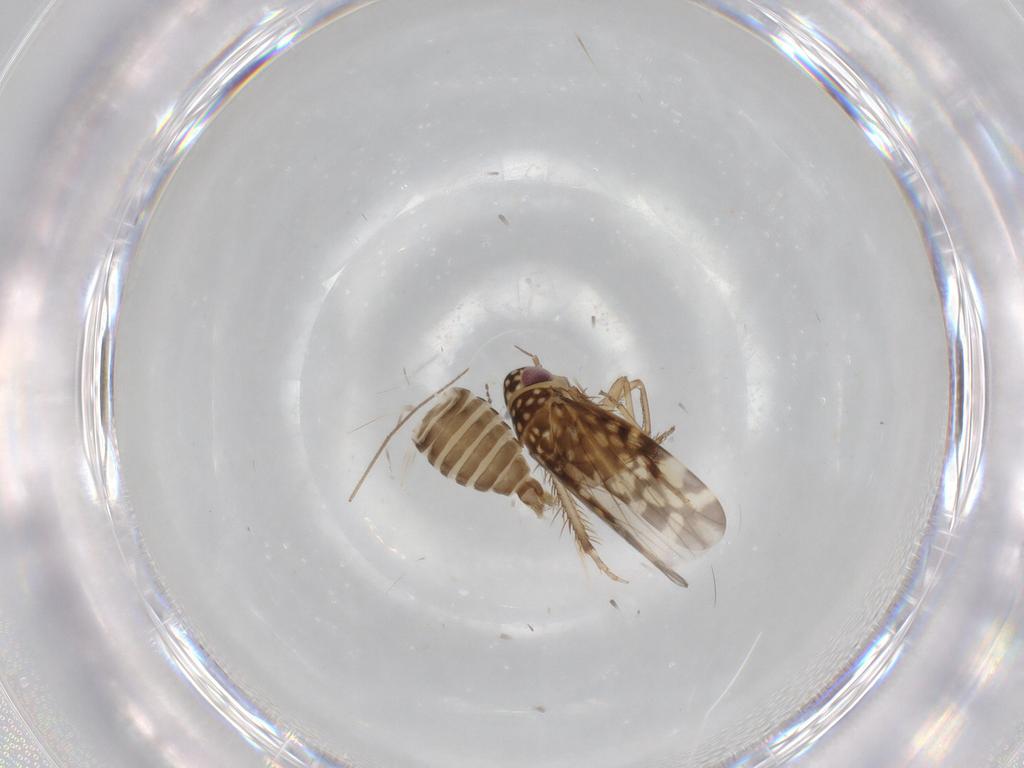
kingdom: Animalia
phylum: Arthropoda
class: Insecta
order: Hemiptera
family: Cicadellidae
